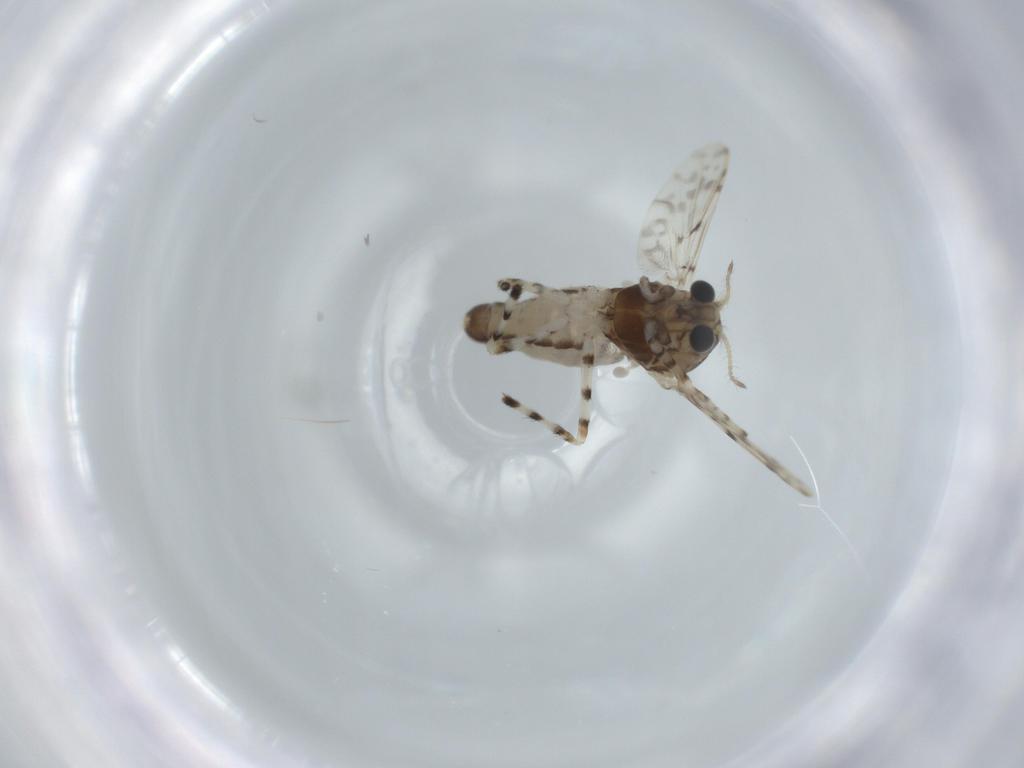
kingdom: Animalia
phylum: Arthropoda
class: Insecta
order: Diptera
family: Chironomidae
